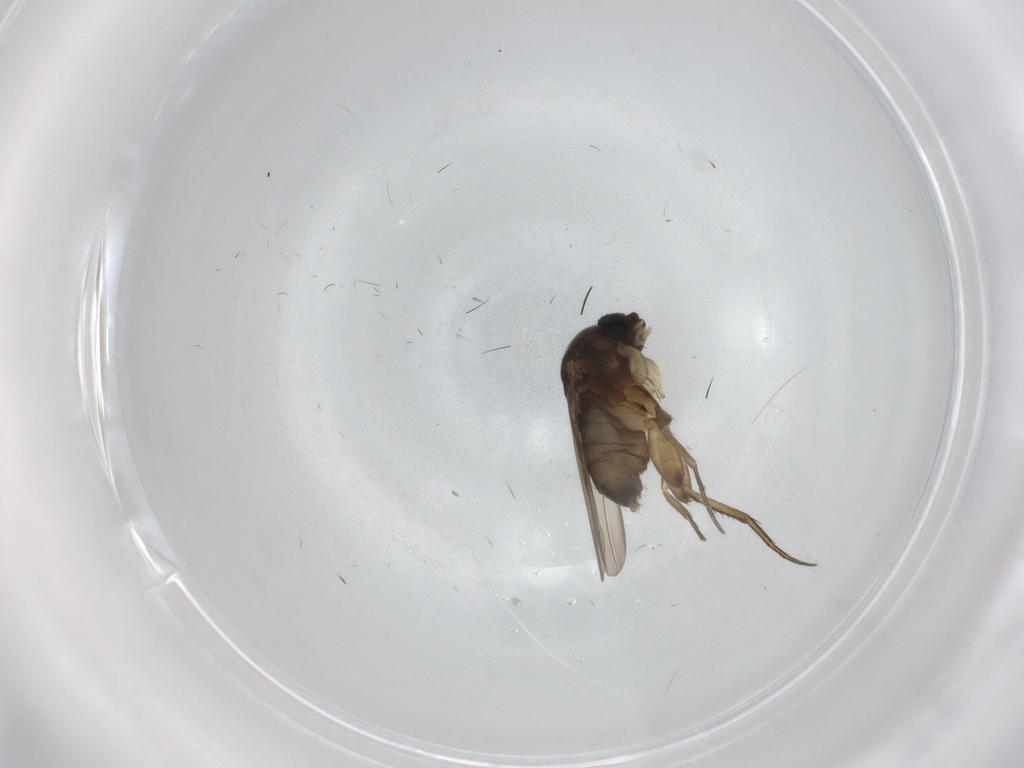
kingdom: Animalia
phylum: Arthropoda
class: Insecta
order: Diptera
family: Phoridae
